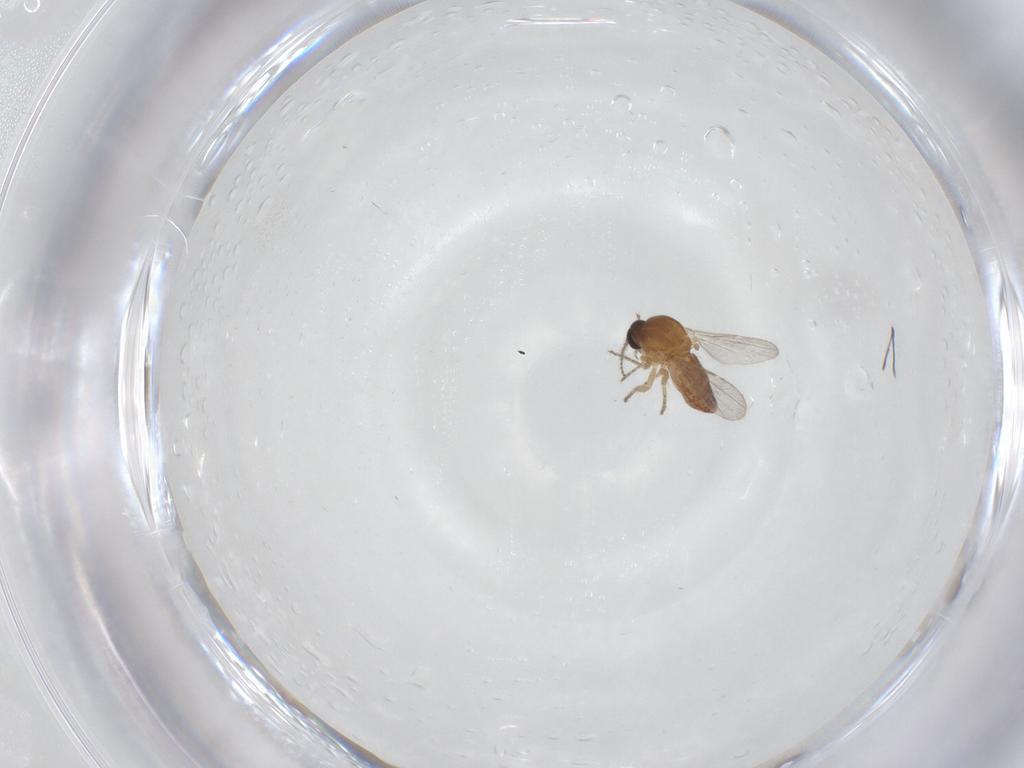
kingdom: Animalia
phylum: Arthropoda
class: Insecta
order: Diptera
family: Ceratopogonidae
